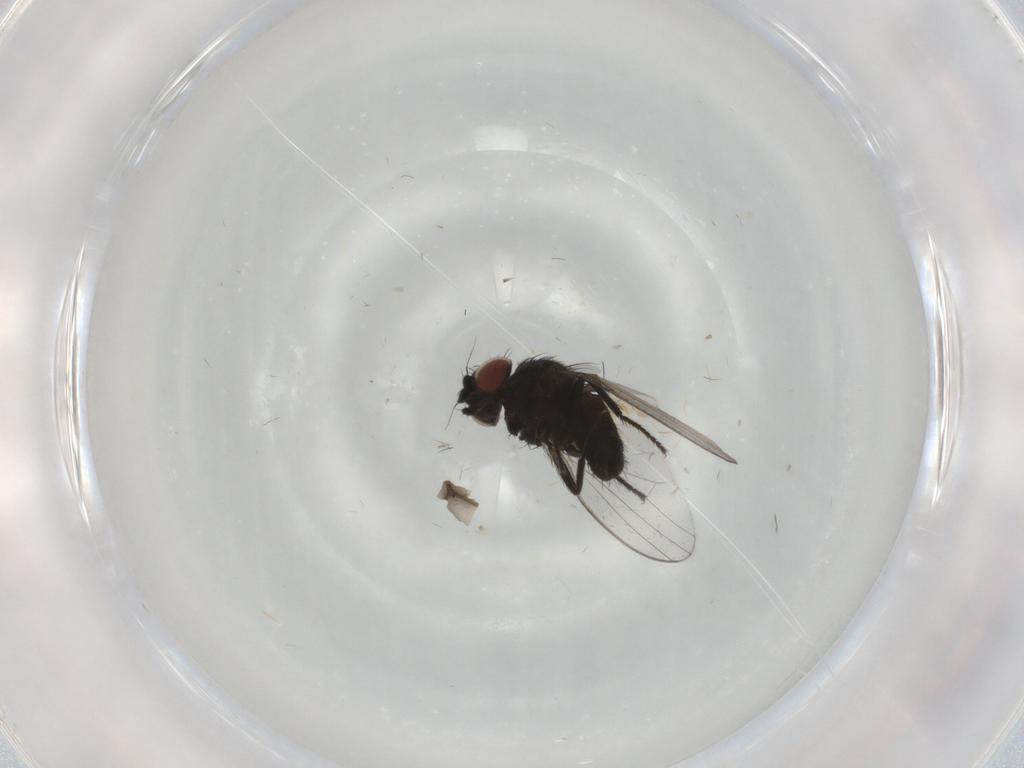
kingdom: Animalia
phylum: Arthropoda
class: Insecta
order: Diptera
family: Milichiidae
